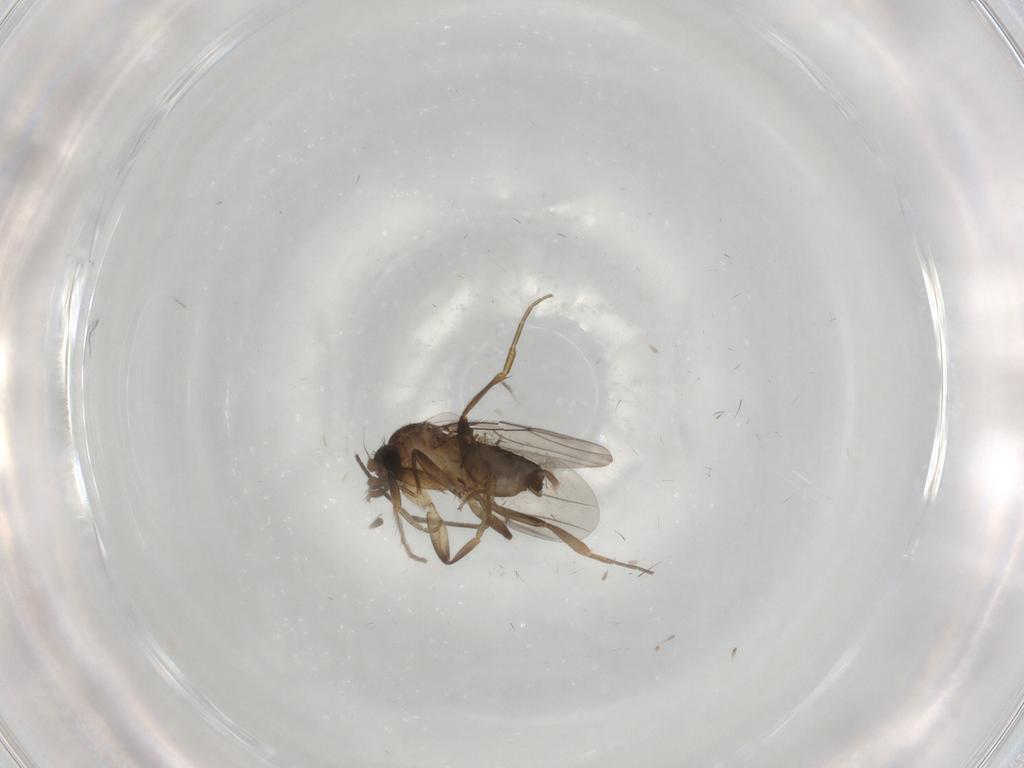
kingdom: Animalia
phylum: Arthropoda
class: Insecta
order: Diptera
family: Phoridae
